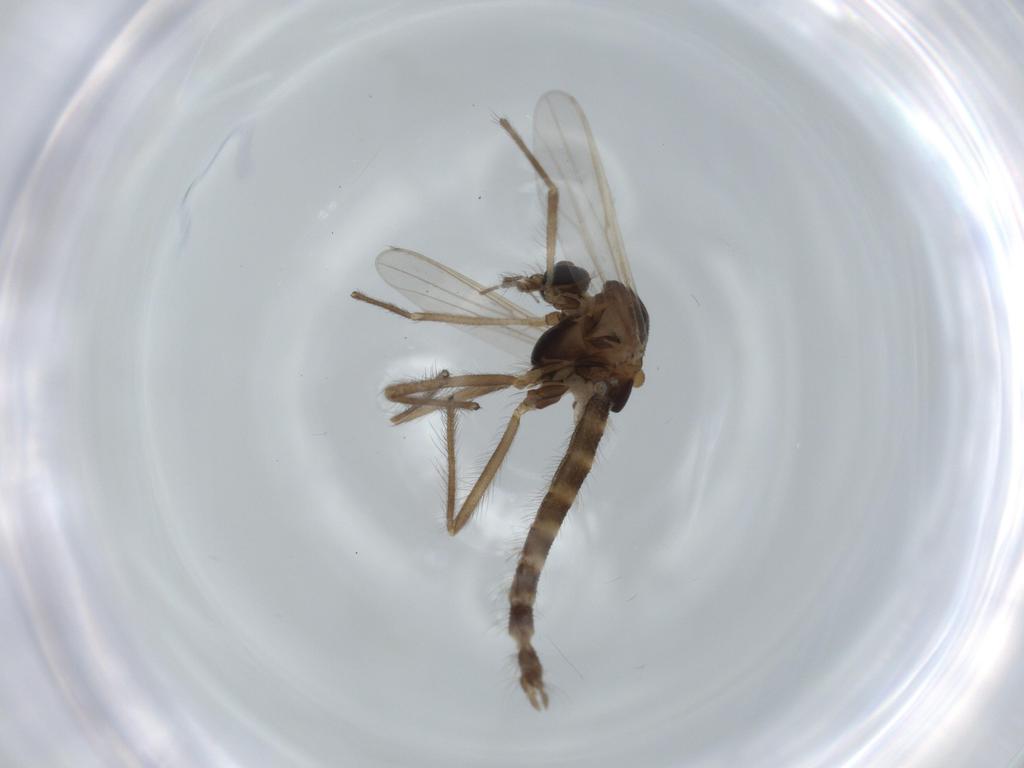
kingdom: Animalia
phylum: Arthropoda
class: Insecta
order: Diptera
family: Chironomidae
